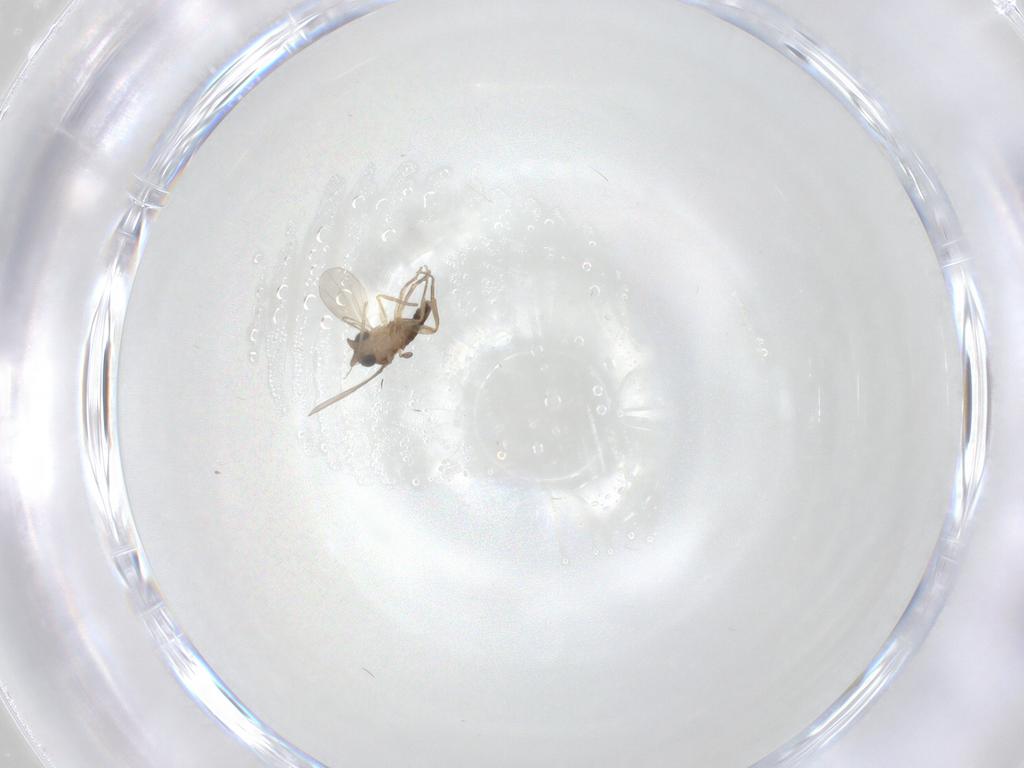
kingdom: Animalia
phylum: Arthropoda
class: Insecta
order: Diptera
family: Phoridae
